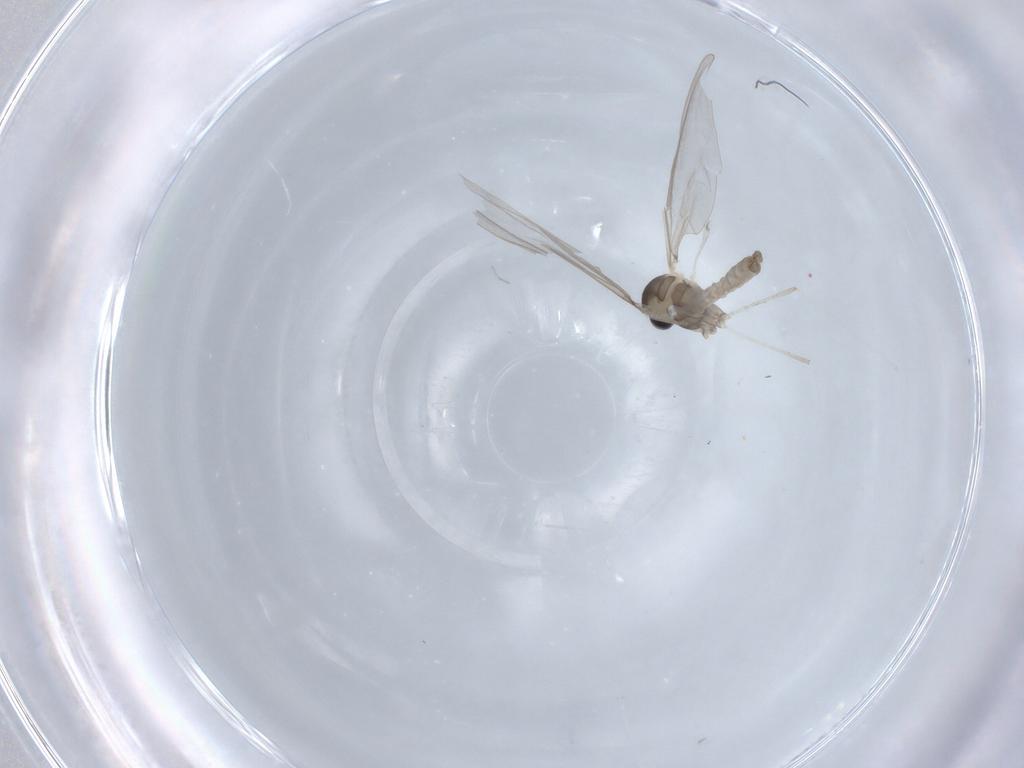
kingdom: Animalia
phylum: Arthropoda
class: Insecta
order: Diptera
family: Cecidomyiidae
